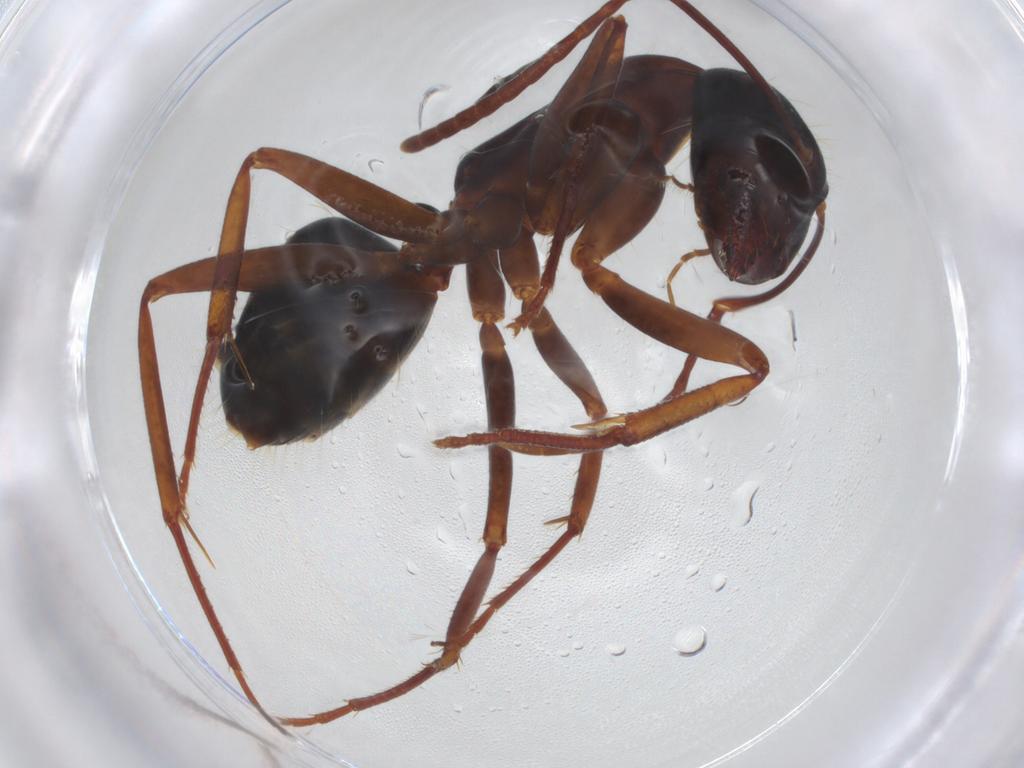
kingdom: Animalia
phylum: Arthropoda
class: Insecta
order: Hymenoptera
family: Formicidae
